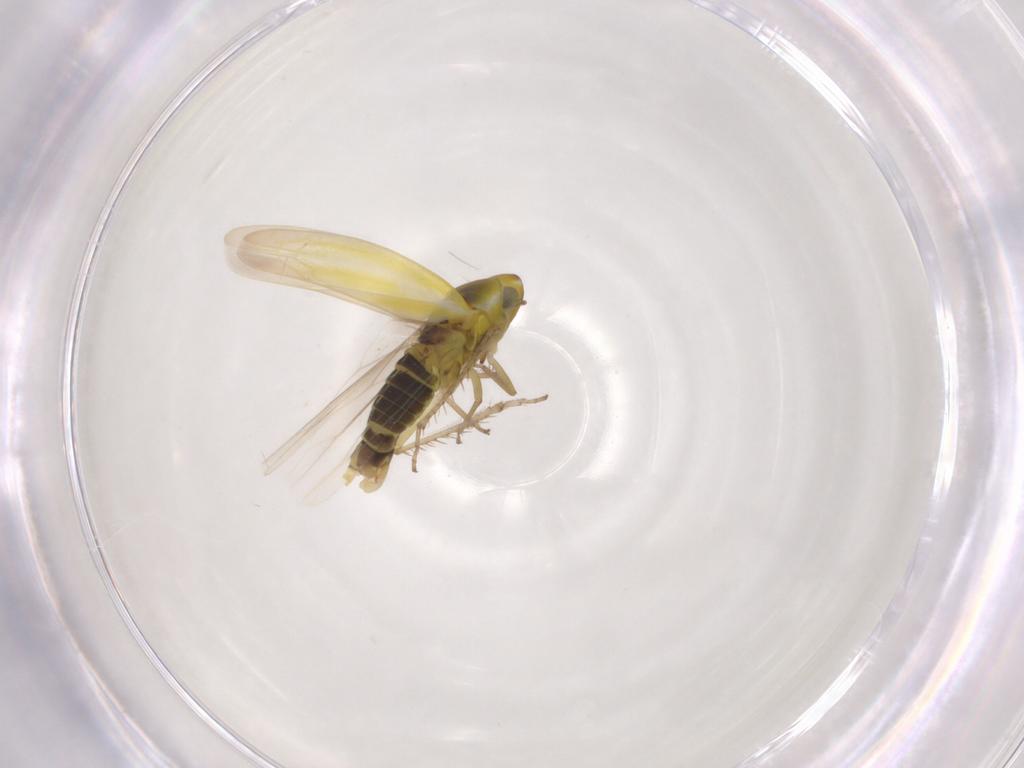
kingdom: Animalia
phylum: Arthropoda
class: Insecta
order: Hemiptera
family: Cicadellidae
